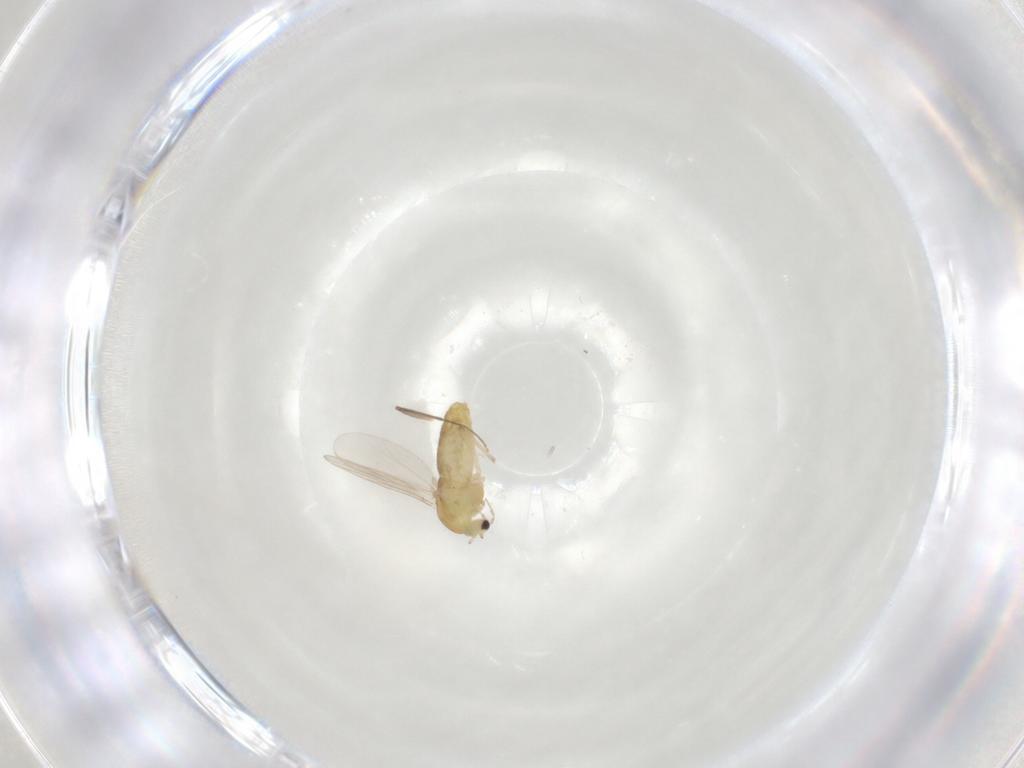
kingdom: Animalia
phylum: Arthropoda
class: Insecta
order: Diptera
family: Chironomidae
